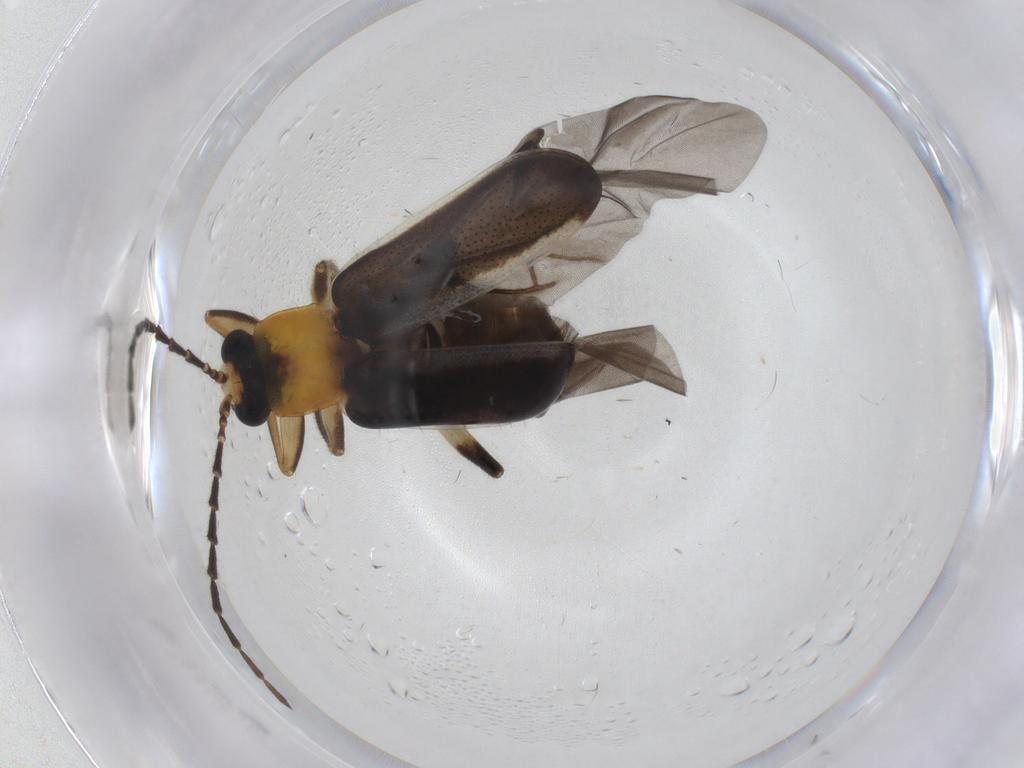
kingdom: Animalia
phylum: Arthropoda
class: Insecta
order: Coleoptera
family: Chrysomelidae
